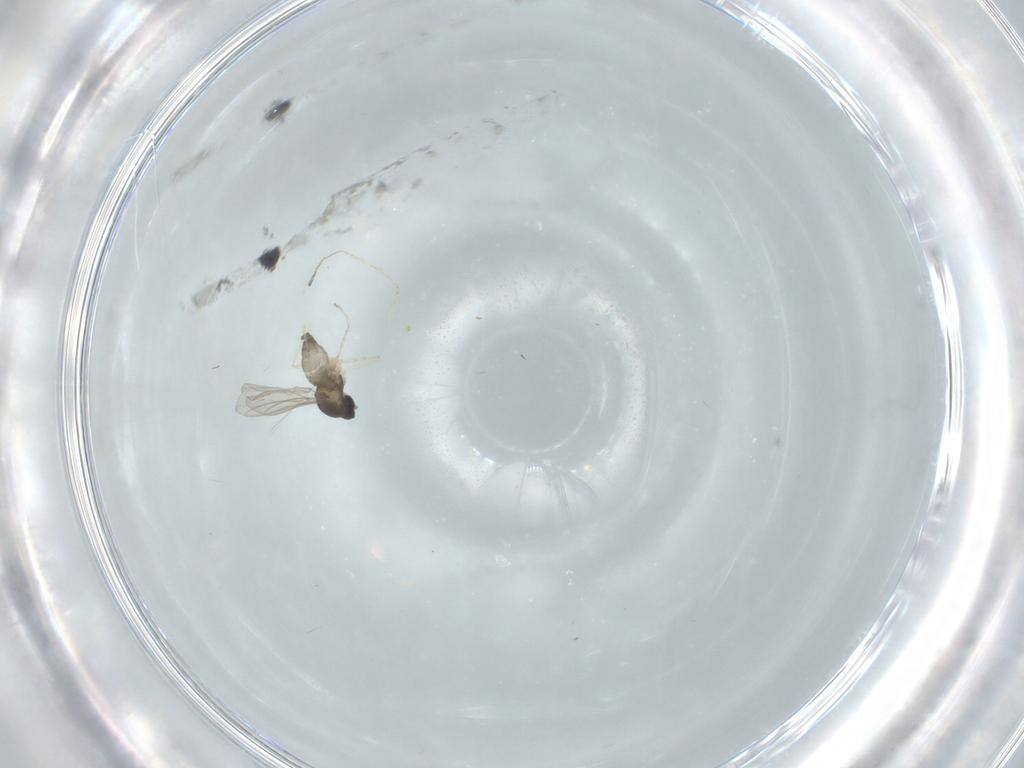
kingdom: Animalia
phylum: Arthropoda
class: Insecta
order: Diptera
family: Cecidomyiidae
